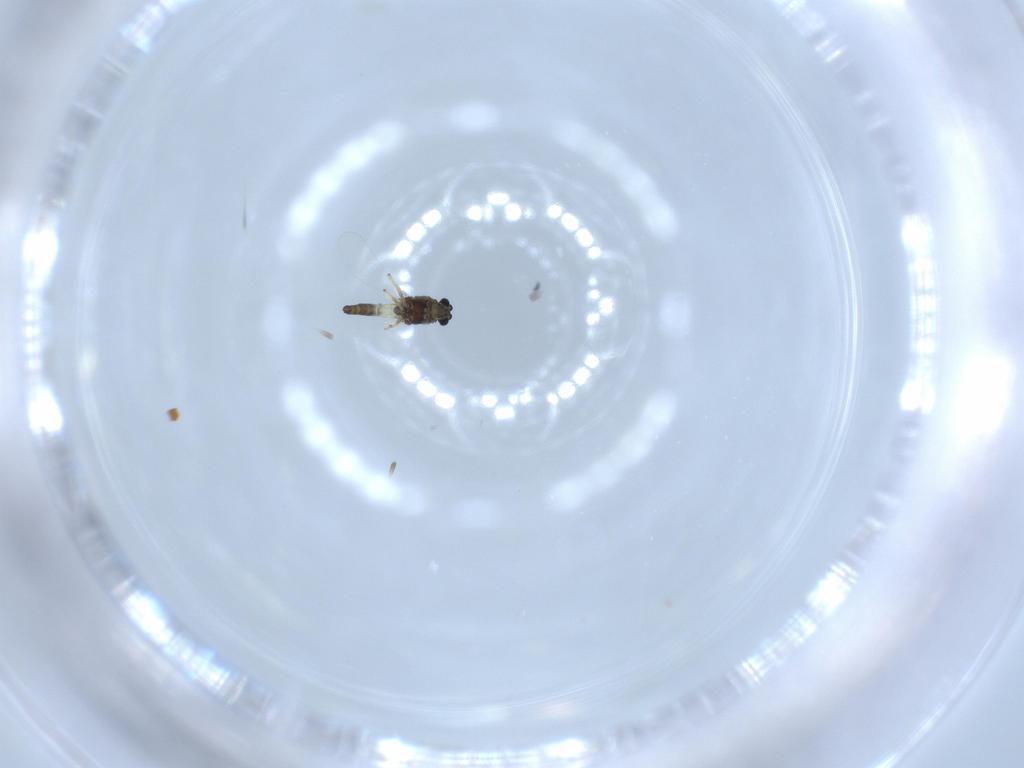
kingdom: Animalia
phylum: Arthropoda
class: Insecta
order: Diptera
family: Chironomidae
